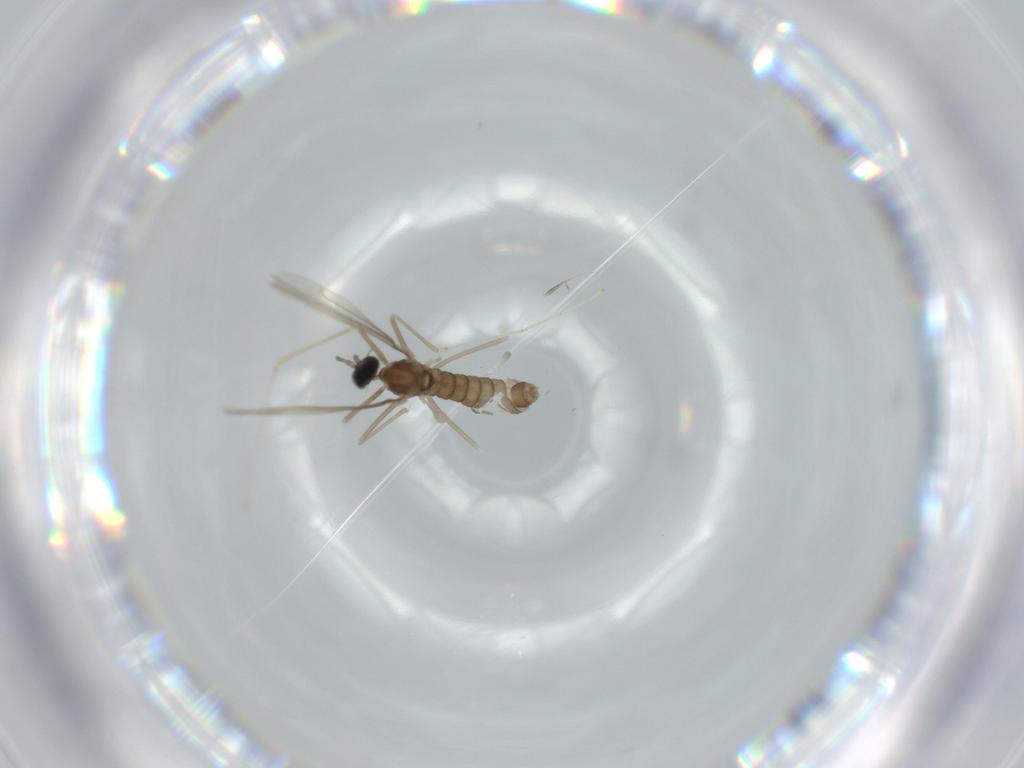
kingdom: Animalia
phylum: Arthropoda
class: Insecta
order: Diptera
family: Cecidomyiidae
